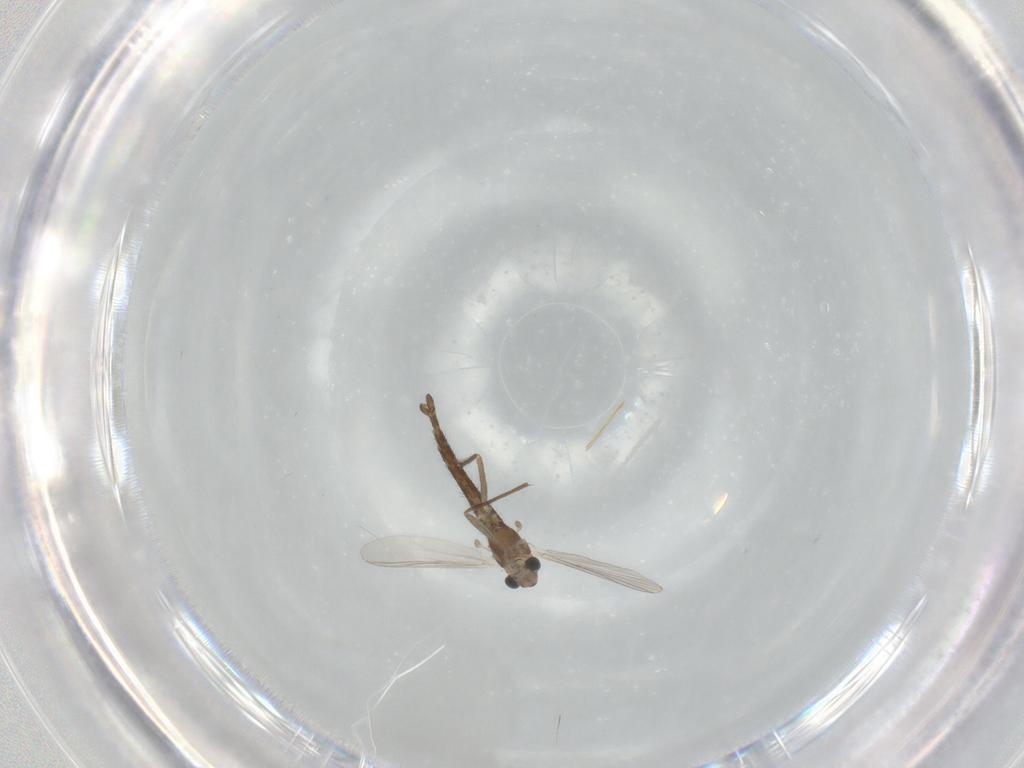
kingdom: Animalia
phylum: Arthropoda
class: Insecta
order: Diptera
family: Chironomidae
